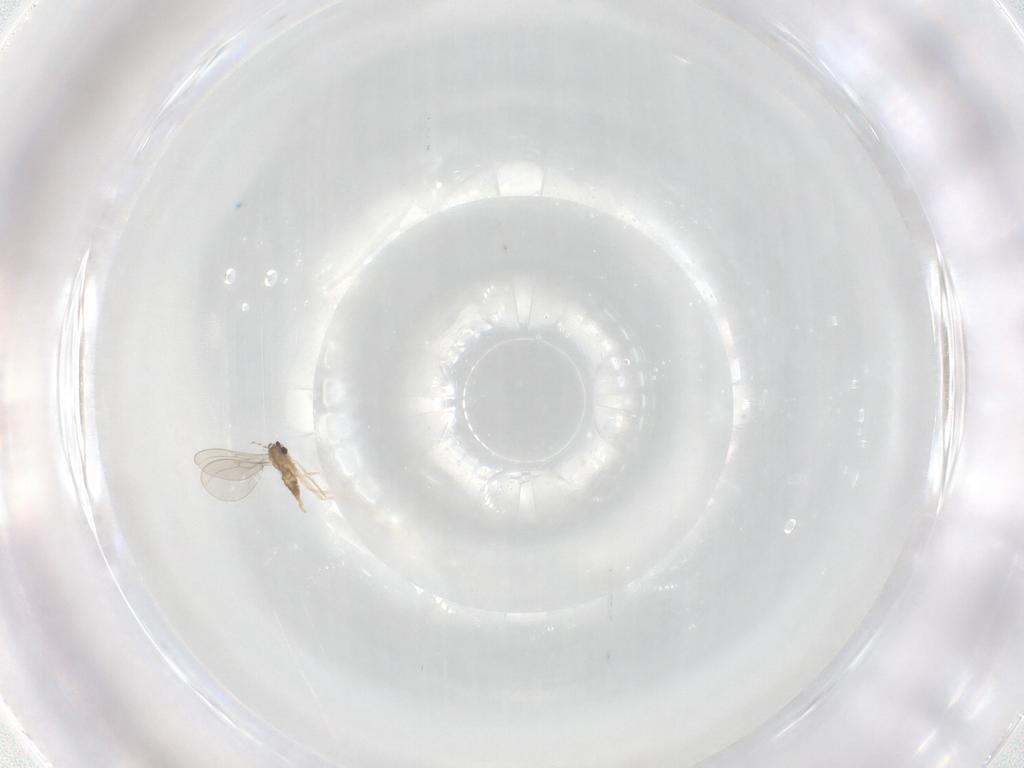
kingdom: Animalia
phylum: Arthropoda
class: Insecta
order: Diptera
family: Cecidomyiidae
